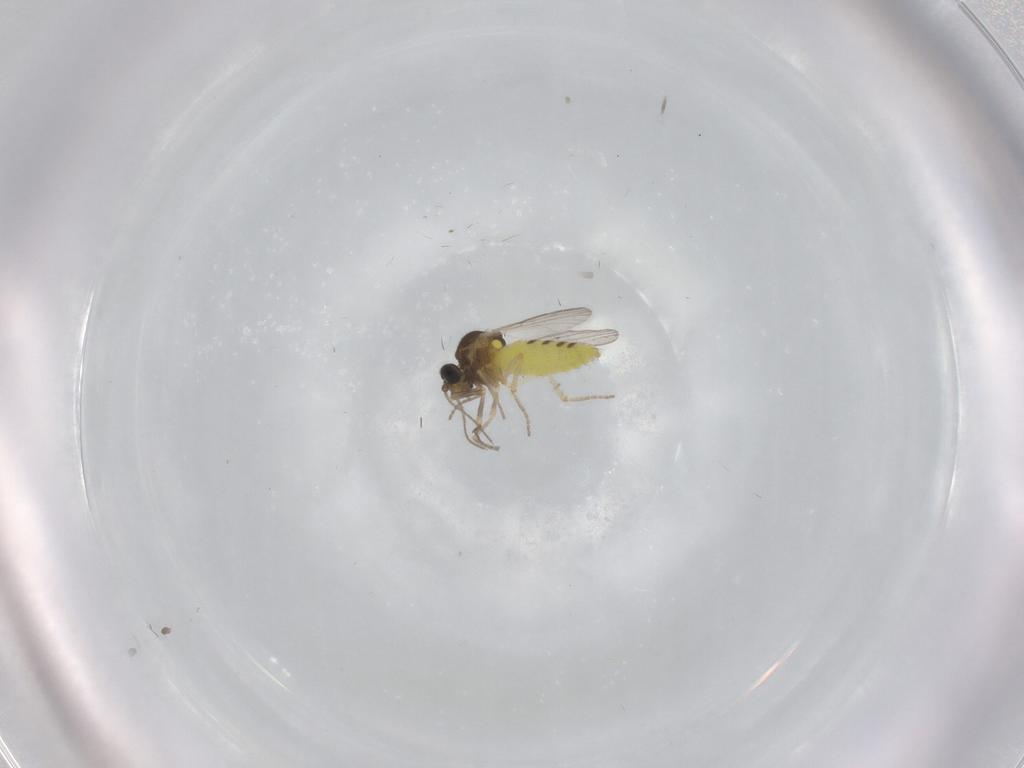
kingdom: Animalia
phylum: Arthropoda
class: Insecta
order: Diptera
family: Ceratopogonidae
